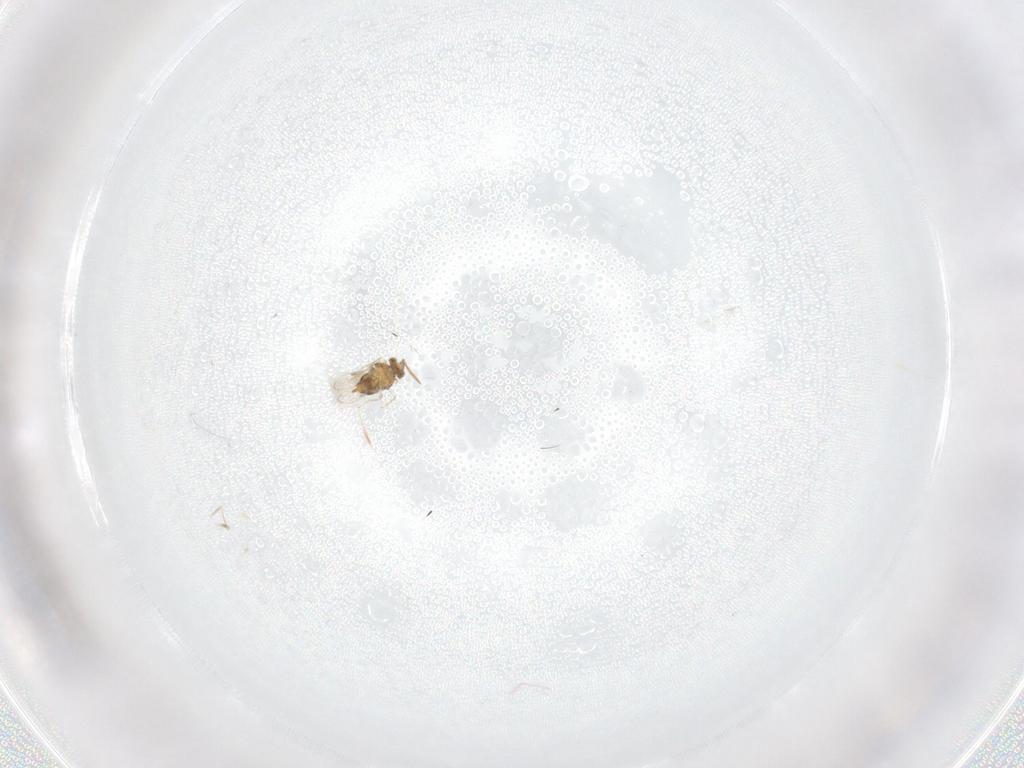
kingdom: Animalia
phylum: Arthropoda
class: Insecta
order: Hymenoptera
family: Aphelinidae
